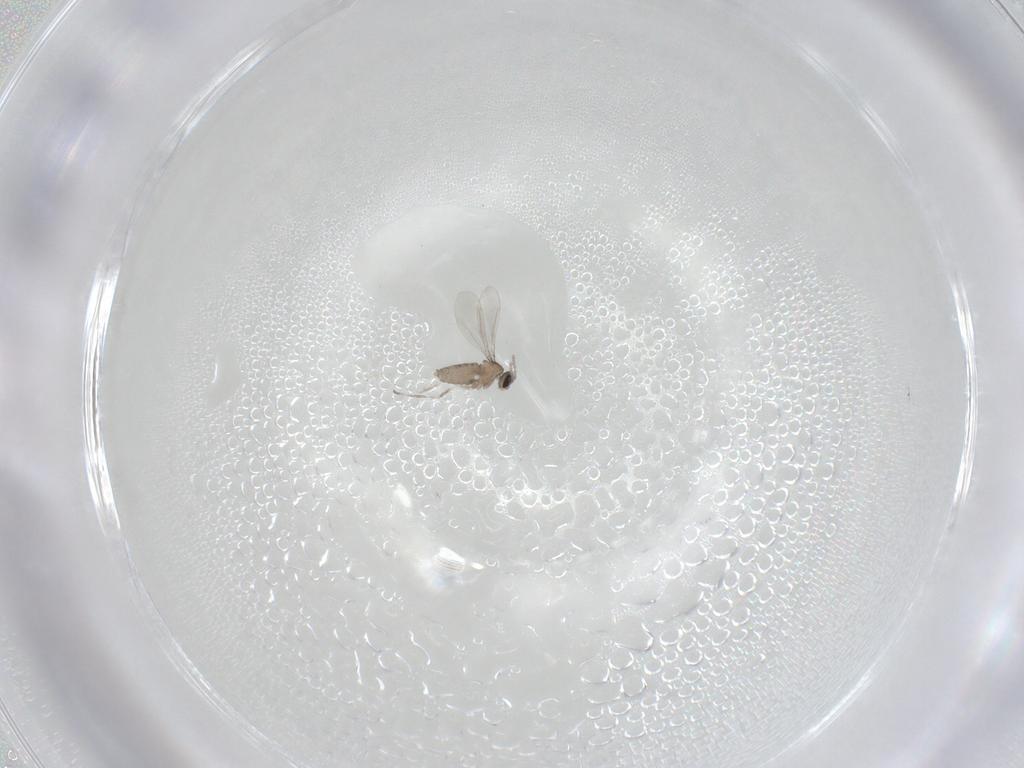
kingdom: Animalia
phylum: Arthropoda
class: Insecta
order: Diptera
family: Cecidomyiidae
